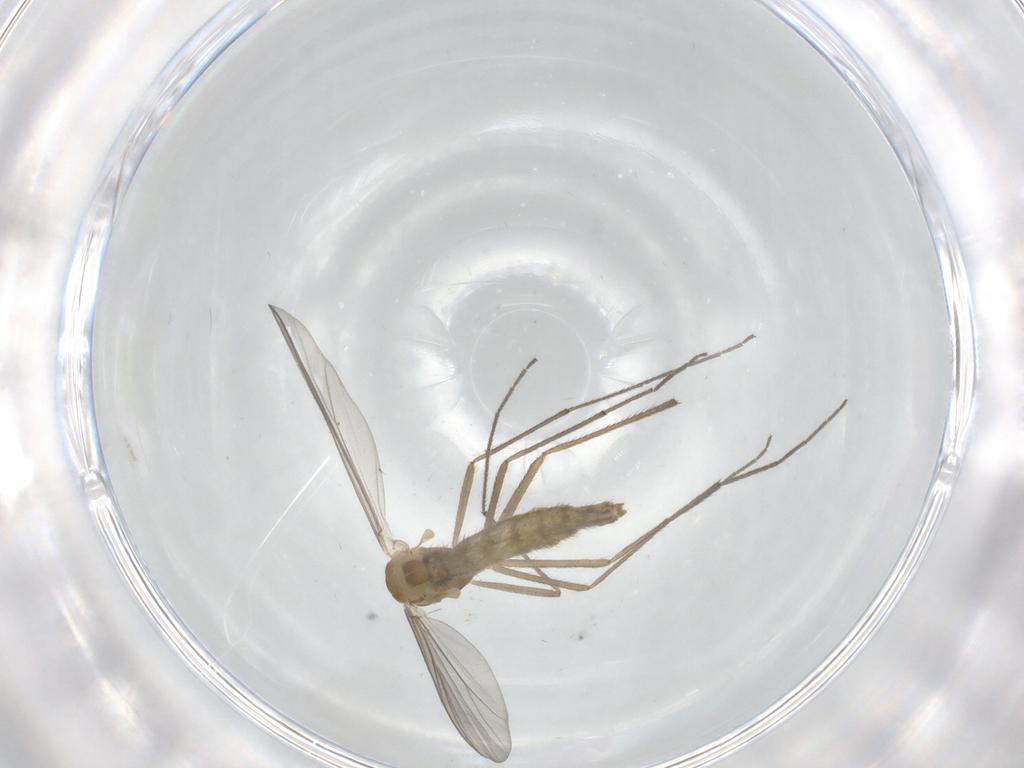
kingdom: Animalia
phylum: Arthropoda
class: Insecta
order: Diptera
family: Chironomidae
